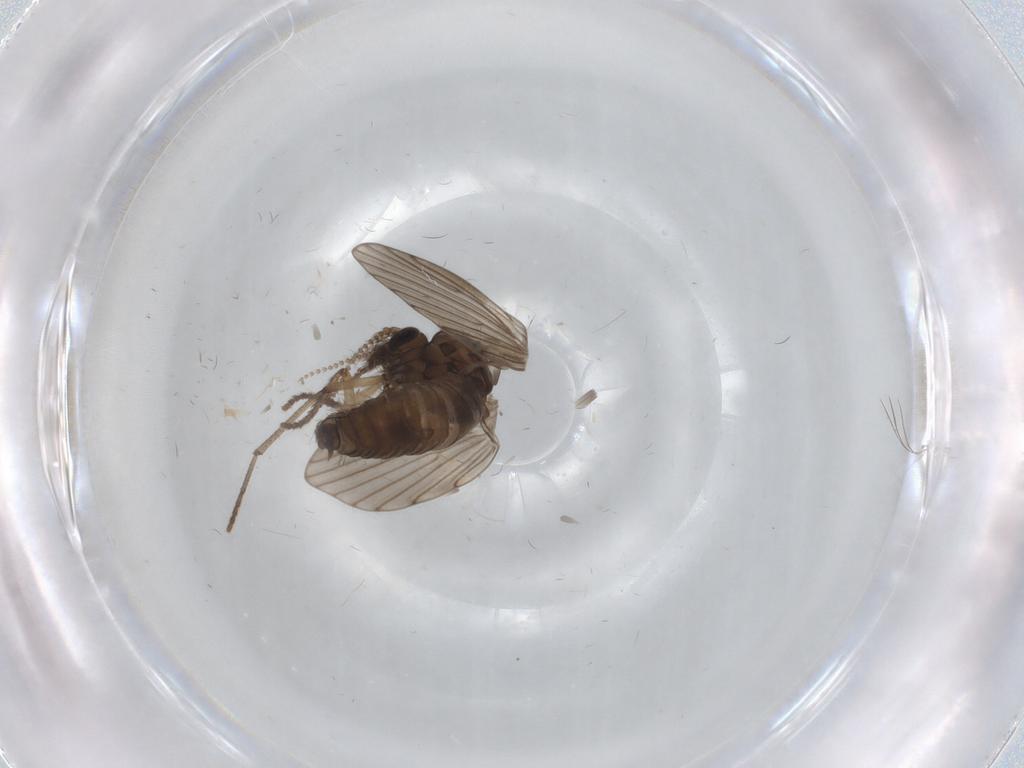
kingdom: Animalia
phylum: Arthropoda
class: Insecta
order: Diptera
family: Psychodidae
